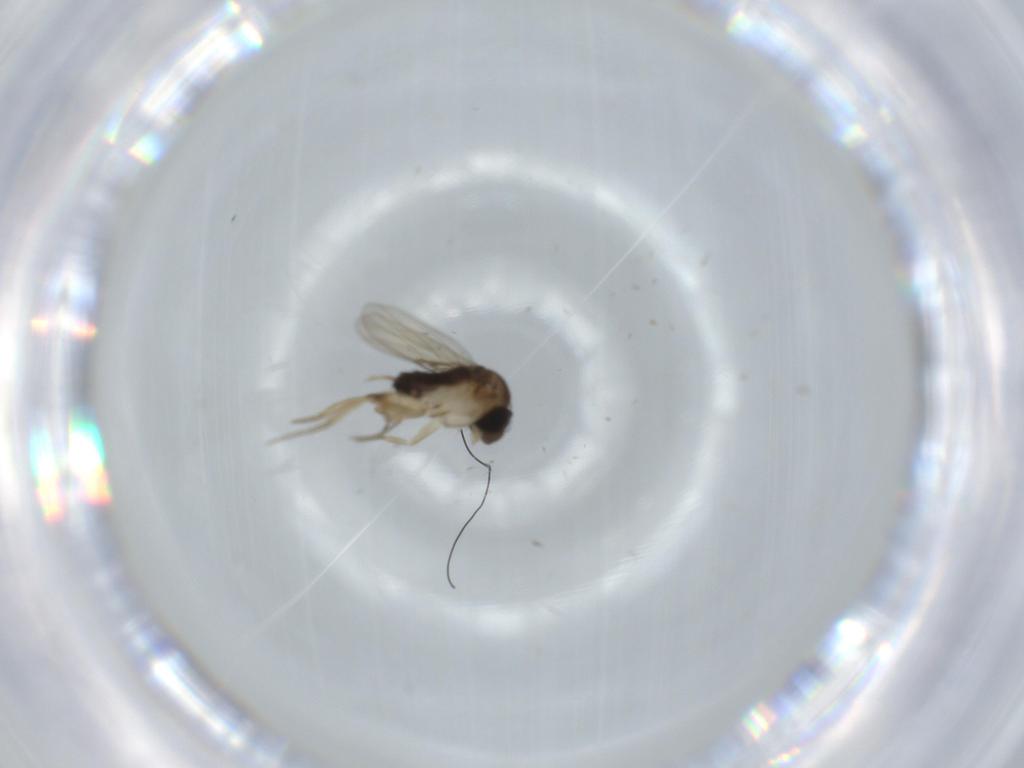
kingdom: Animalia
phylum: Arthropoda
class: Insecta
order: Diptera
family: Phoridae
